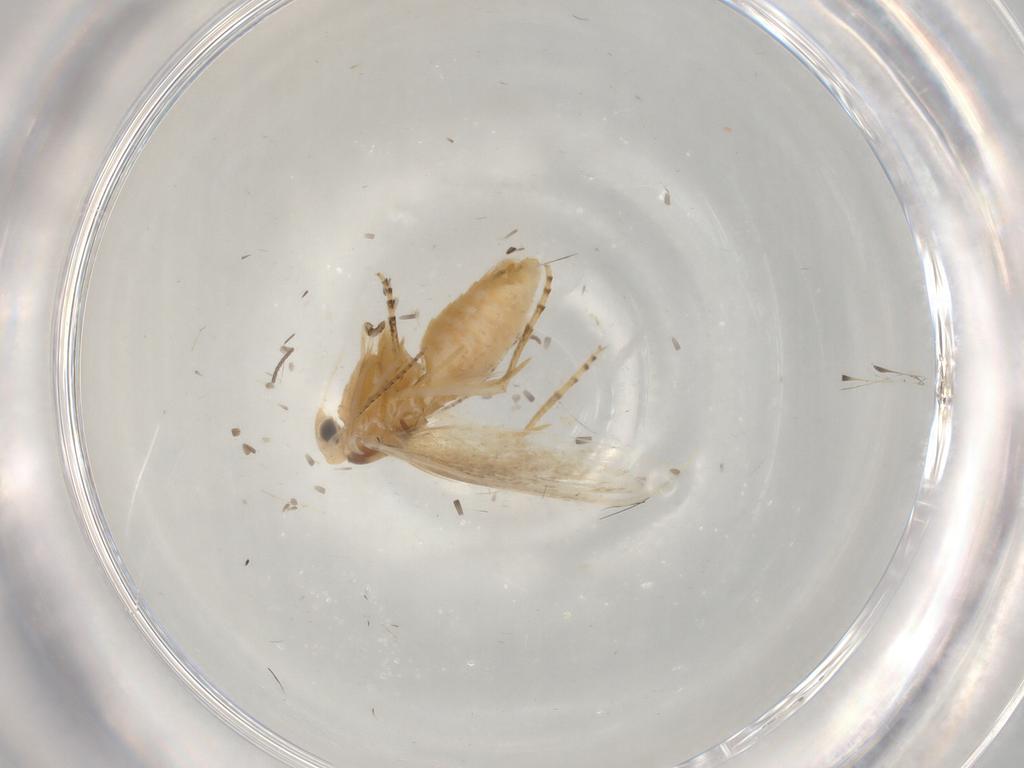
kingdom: Animalia
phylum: Arthropoda
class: Insecta
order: Lepidoptera
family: Bucculatricidae
